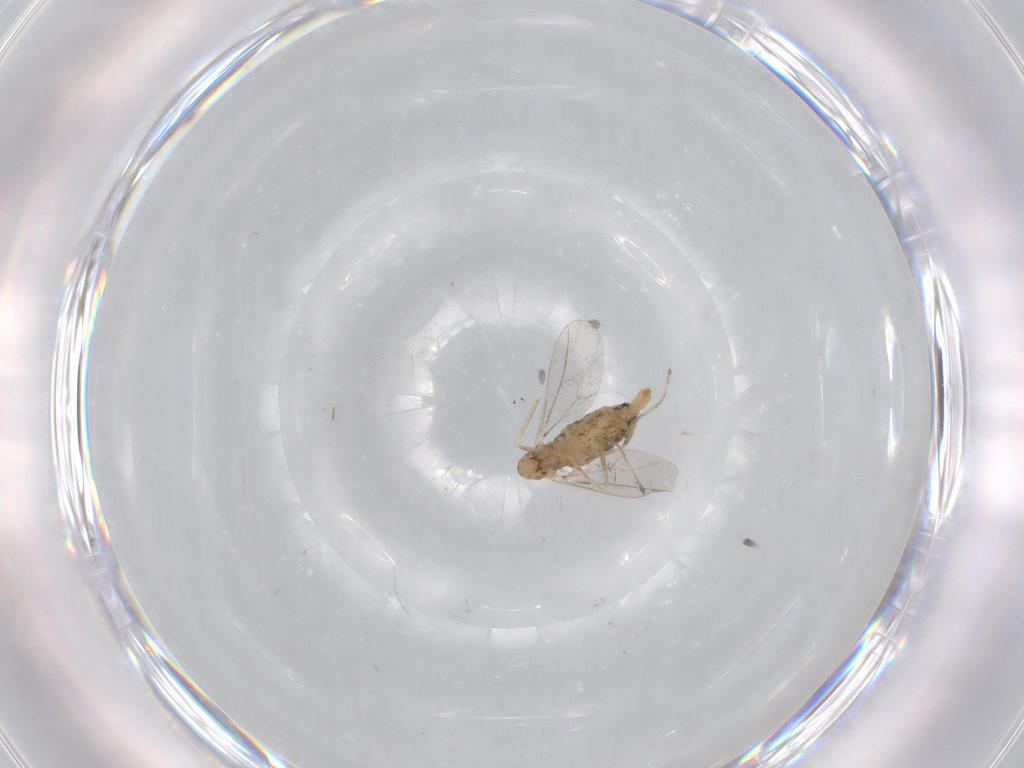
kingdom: Animalia
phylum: Arthropoda
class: Insecta
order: Diptera
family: Cecidomyiidae
